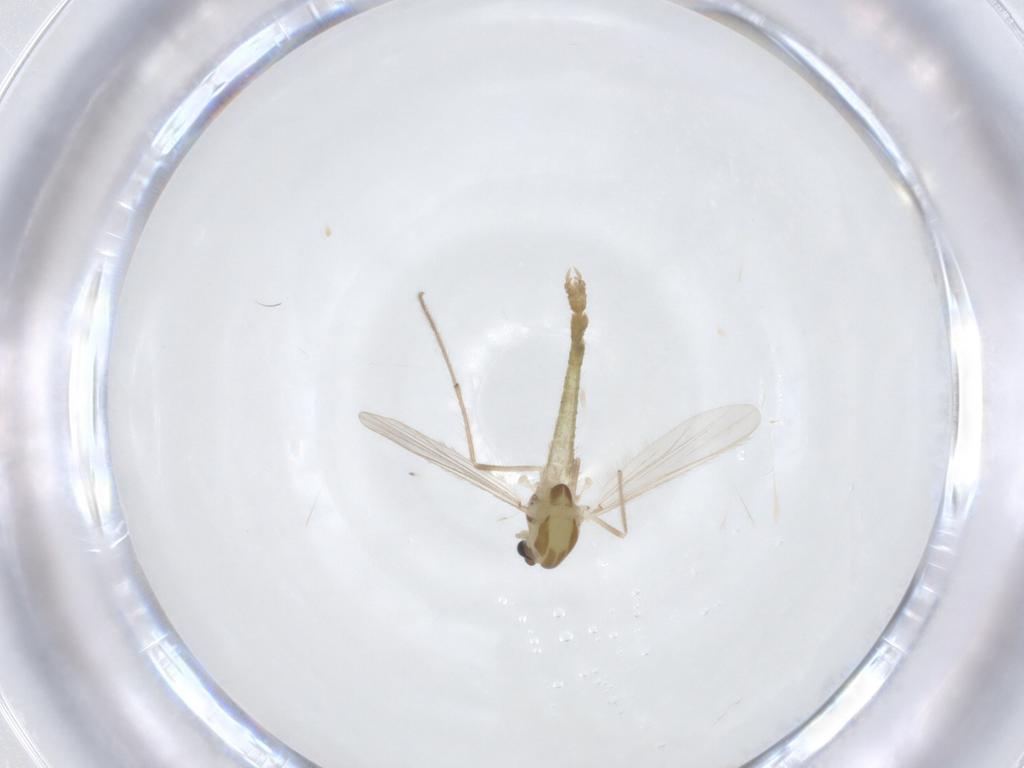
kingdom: Animalia
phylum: Arthropoda
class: Insecta
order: Diptera
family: Chironomidae
